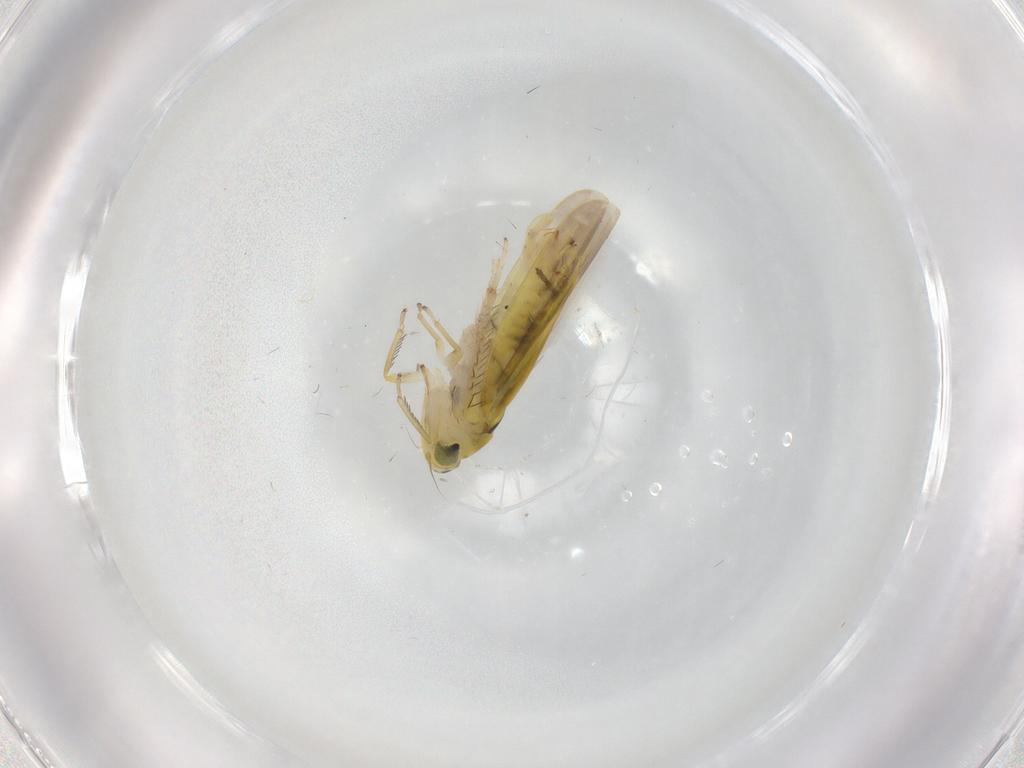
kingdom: Animalia
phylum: Arthropoda
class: Insecta
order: Hemiptera
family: Cicadellidae
